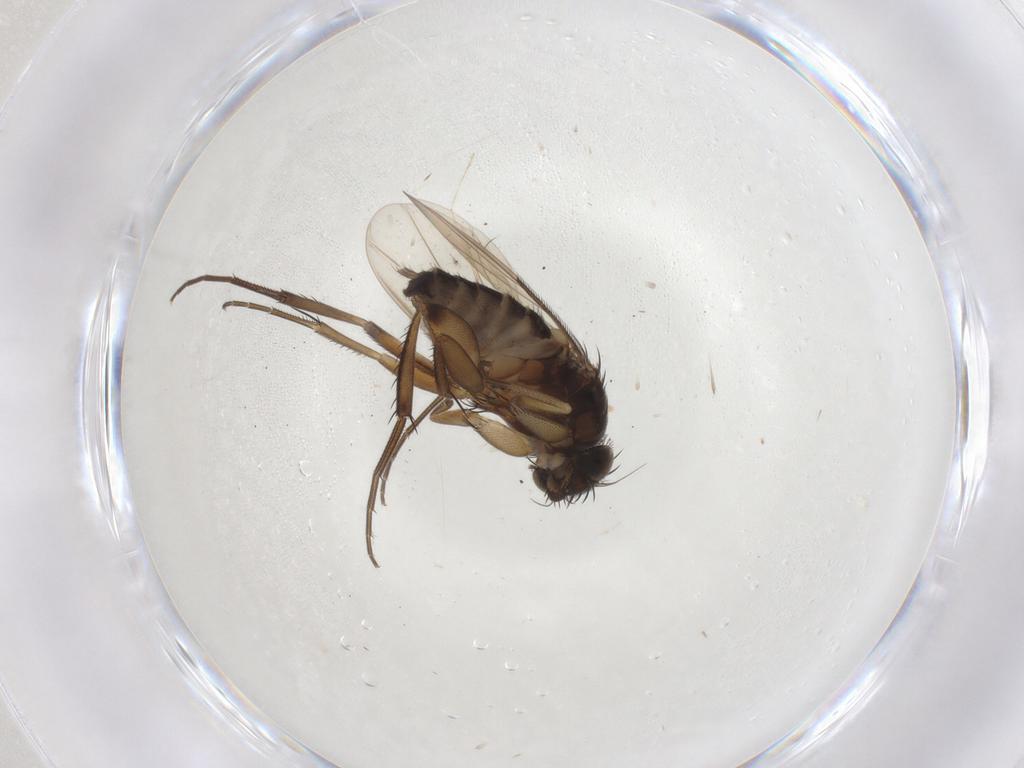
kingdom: Animalia
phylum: Arthropoda
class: Insecta
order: Diptera
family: Phoridae
